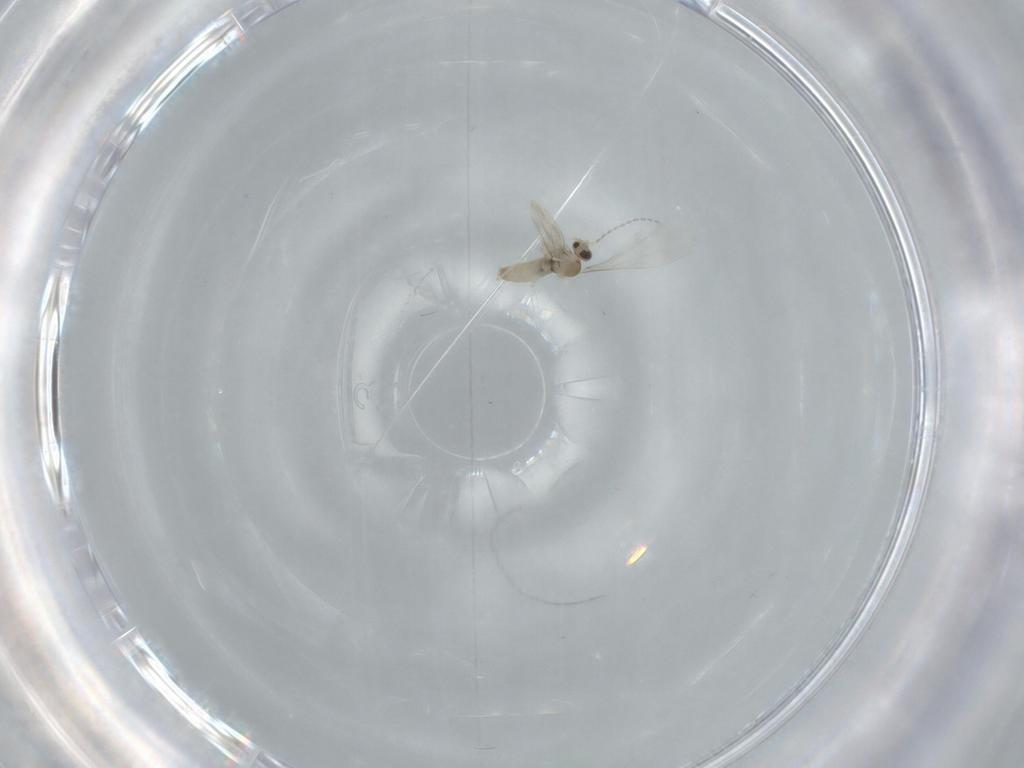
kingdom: Animalia
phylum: Arthropoda
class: Insecta
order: Diptera
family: Cecidomyiidae
